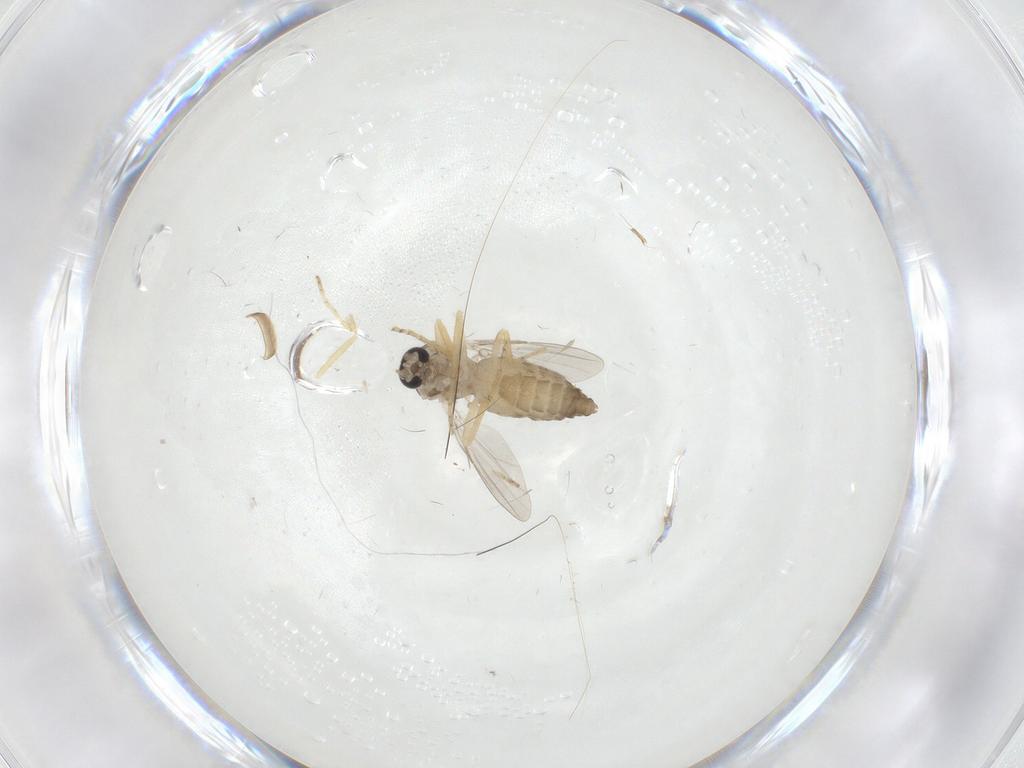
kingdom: Animalia
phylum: Arthropoda
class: Insecta
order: Diptera
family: Ceratopogonidae
